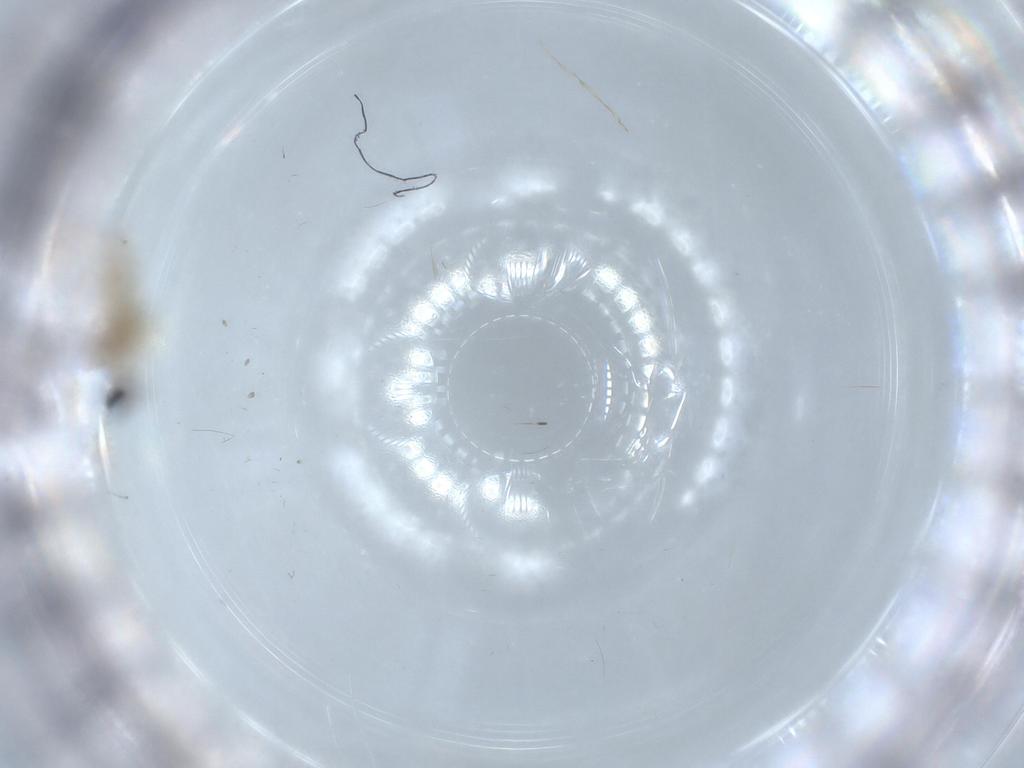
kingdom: Animalia
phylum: Arthropoda
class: Insecta
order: Diptera
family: Cecidomyiidae
